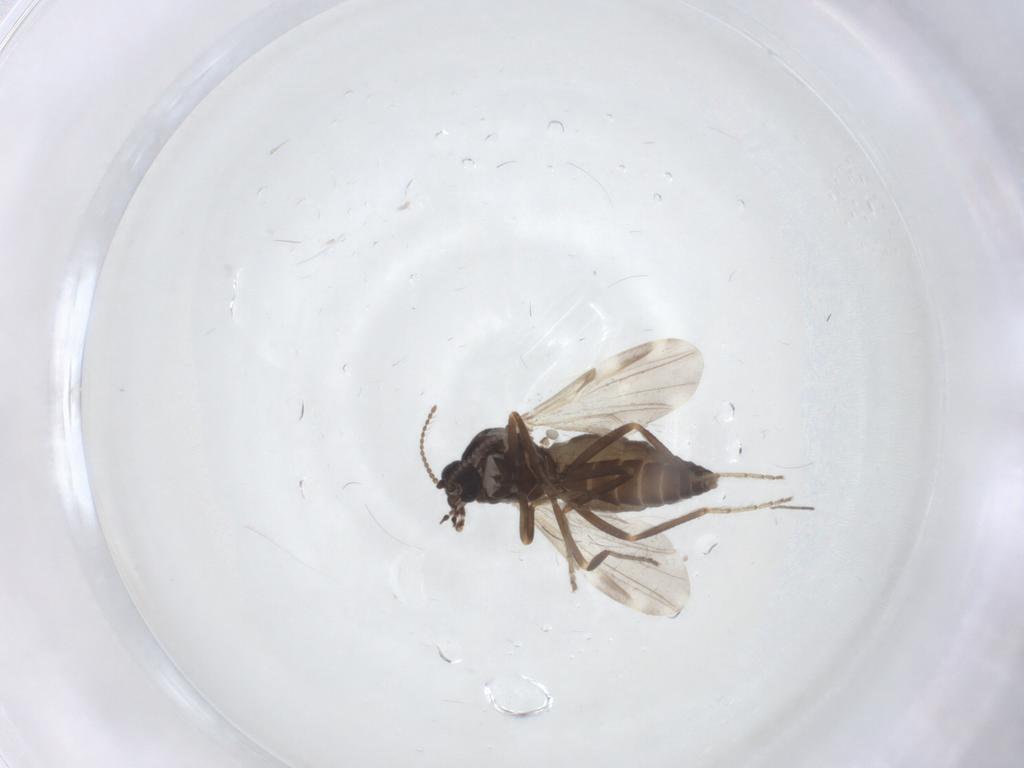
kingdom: Animalia
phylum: Arthropoda
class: Insecta
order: Diptera
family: Ceratopogonidae
